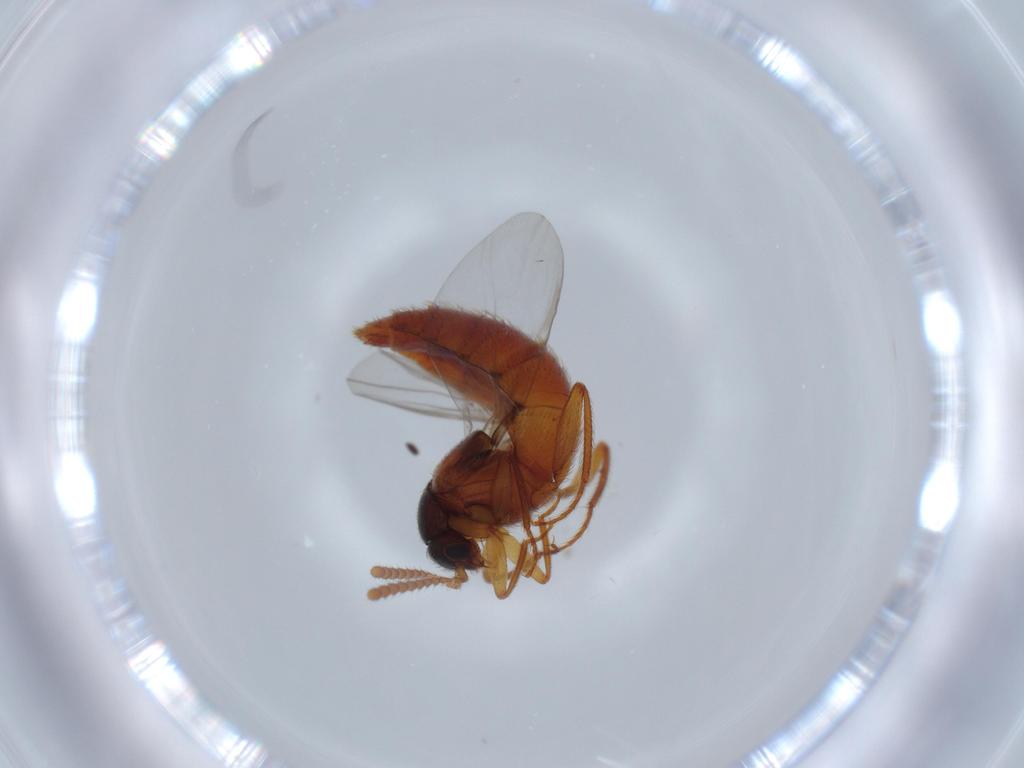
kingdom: Animalia
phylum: Arthropoda
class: Insecta
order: Coleoptera
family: Staphylinidae
